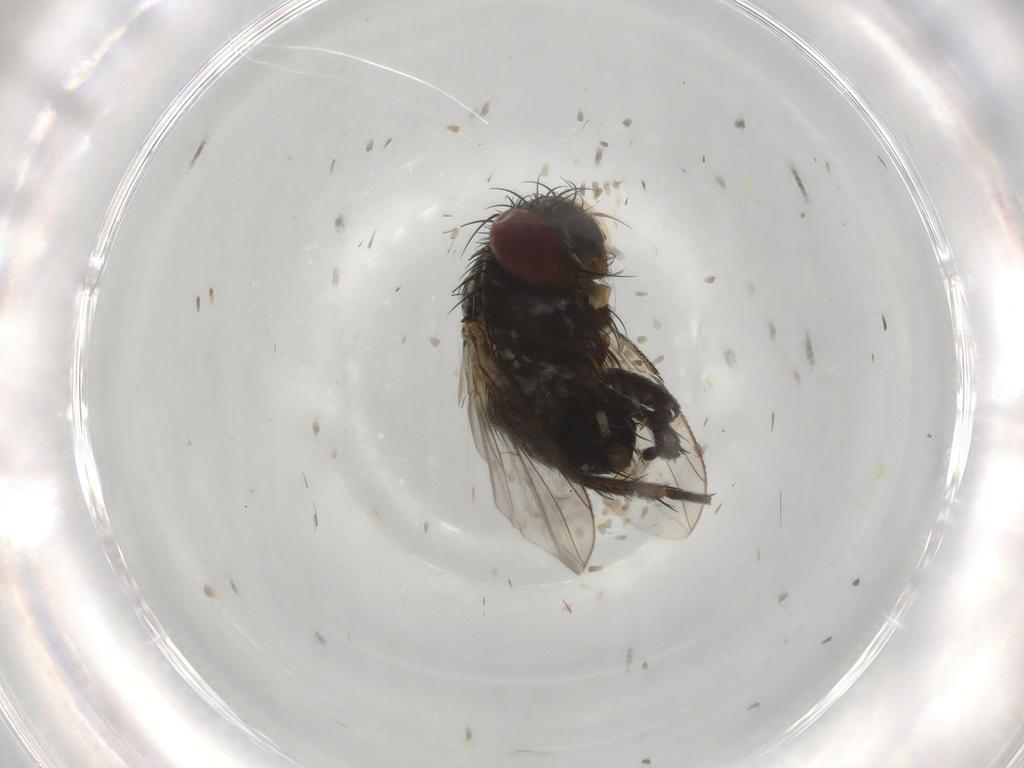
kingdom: Animalia
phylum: Arthropoda
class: Insecta
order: Diptera
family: Tachinidae
